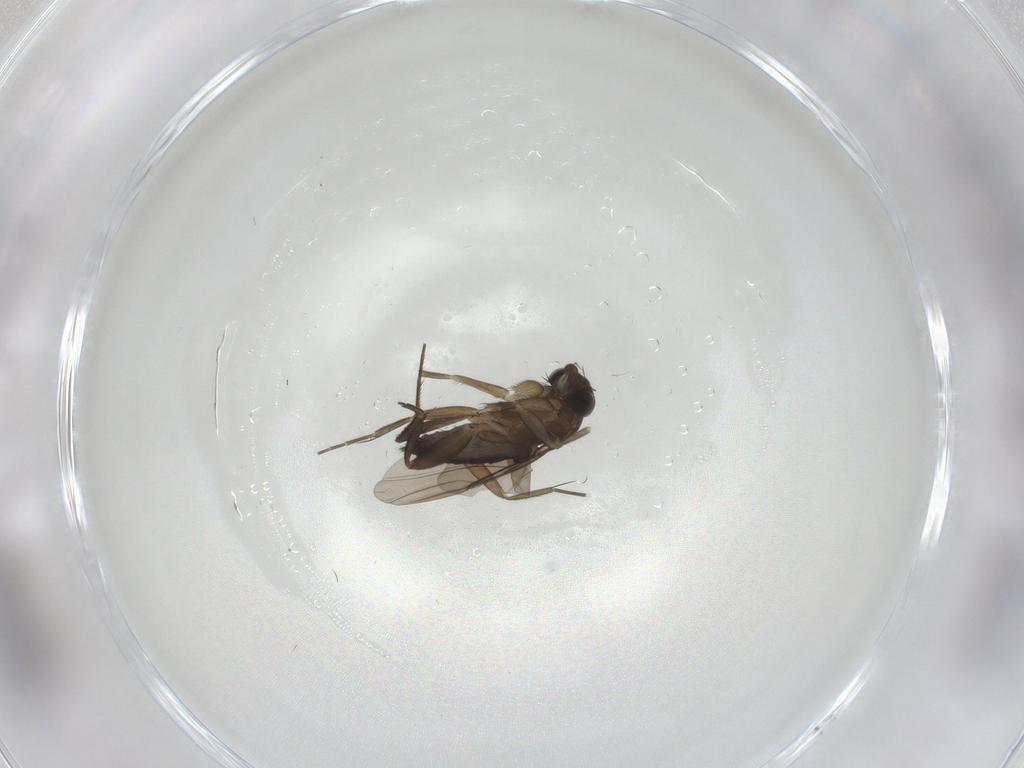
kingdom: Animalia
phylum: Arthropoda
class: Insecta
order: Diptera
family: Phoridae
